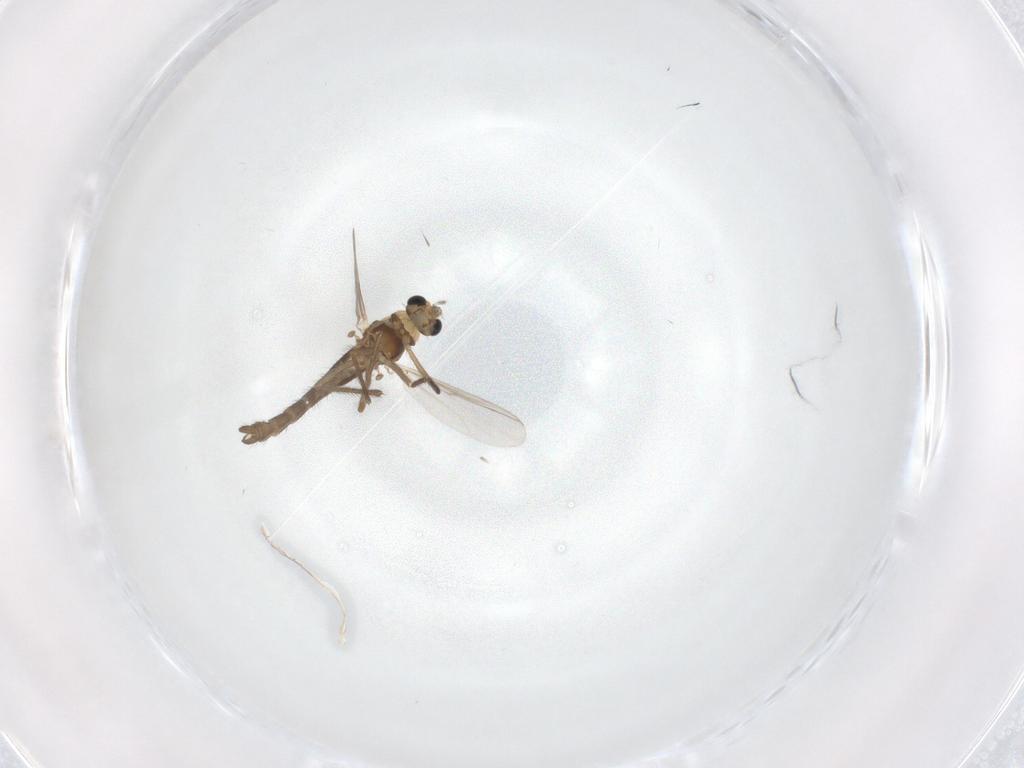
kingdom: Animalia
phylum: Arthropoda
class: Insecta
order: Diptera
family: Chironomidae
